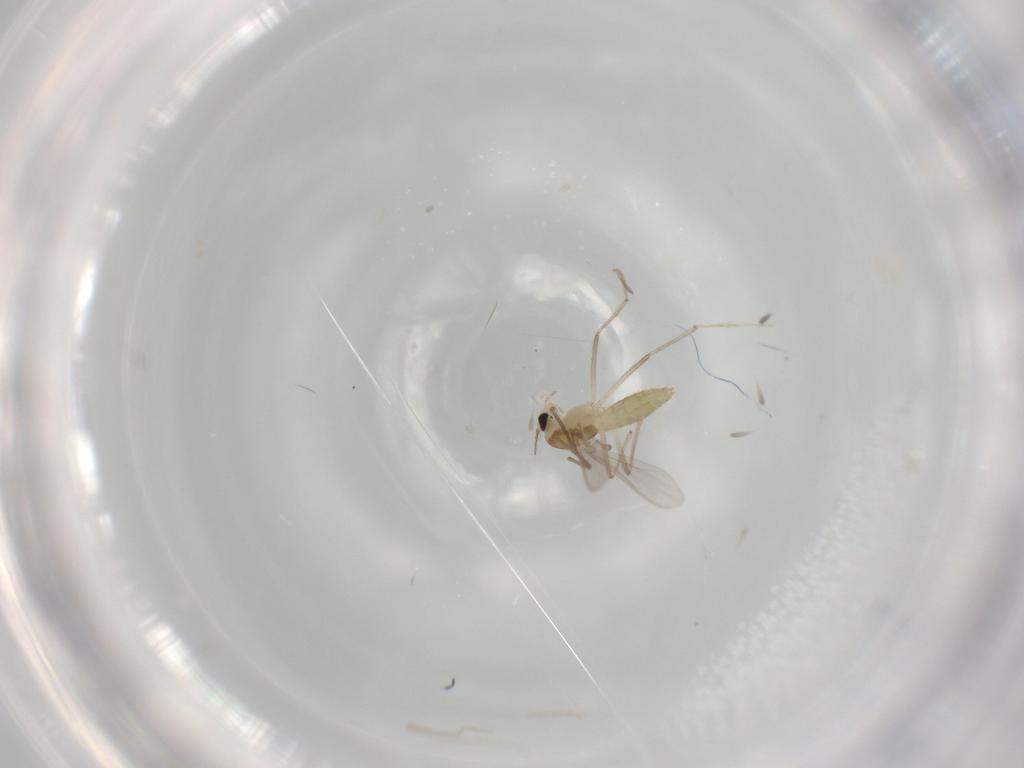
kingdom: Animalia
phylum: Arthropoda
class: Insecta
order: Diptera
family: Chironomidae
